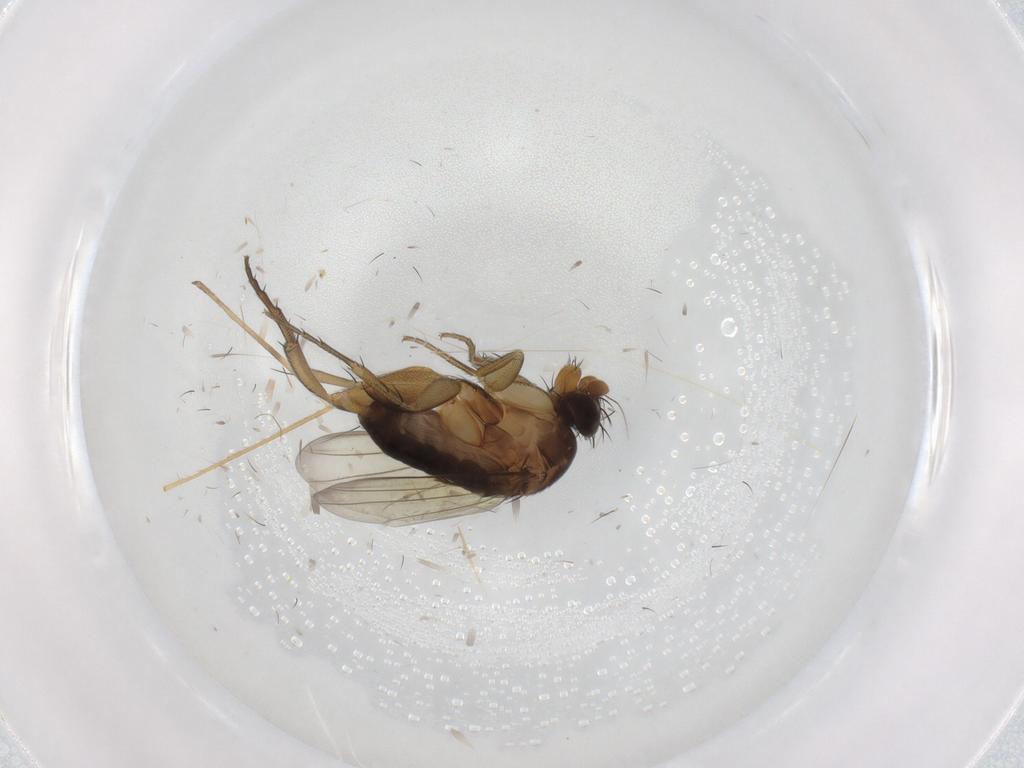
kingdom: Animalia
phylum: Arthropoda
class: Insecta
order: Diptera
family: Phoridae
